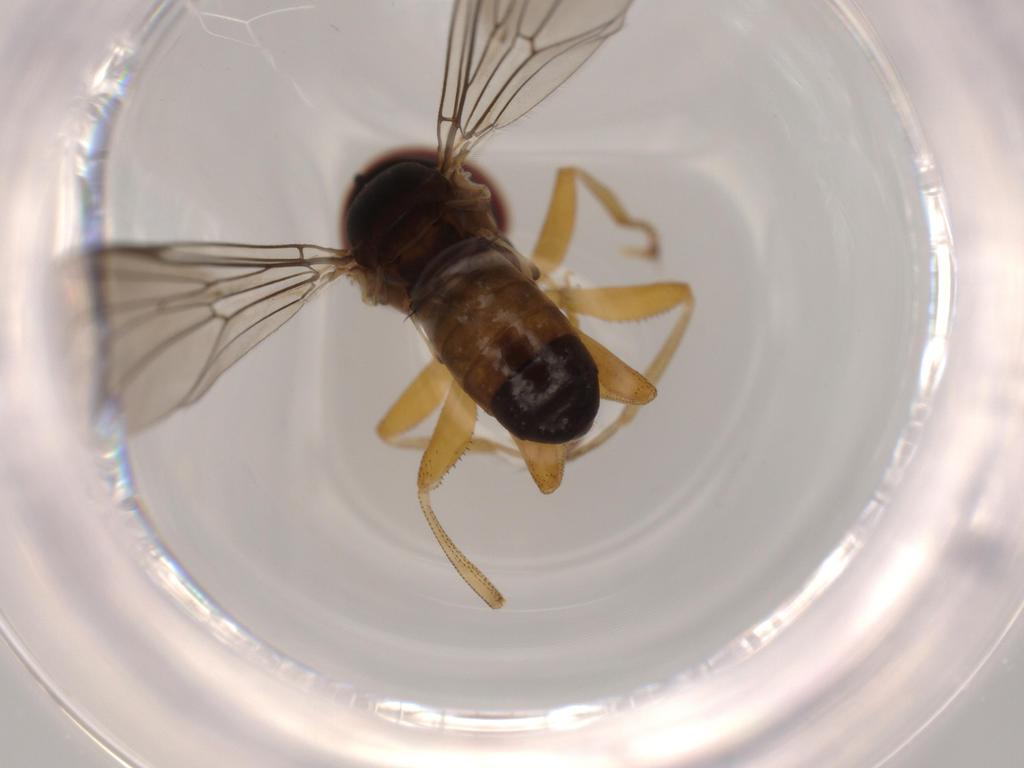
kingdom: Animalia
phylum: Arthropoda
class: Insecta
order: Diptera
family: Pipunculidae
